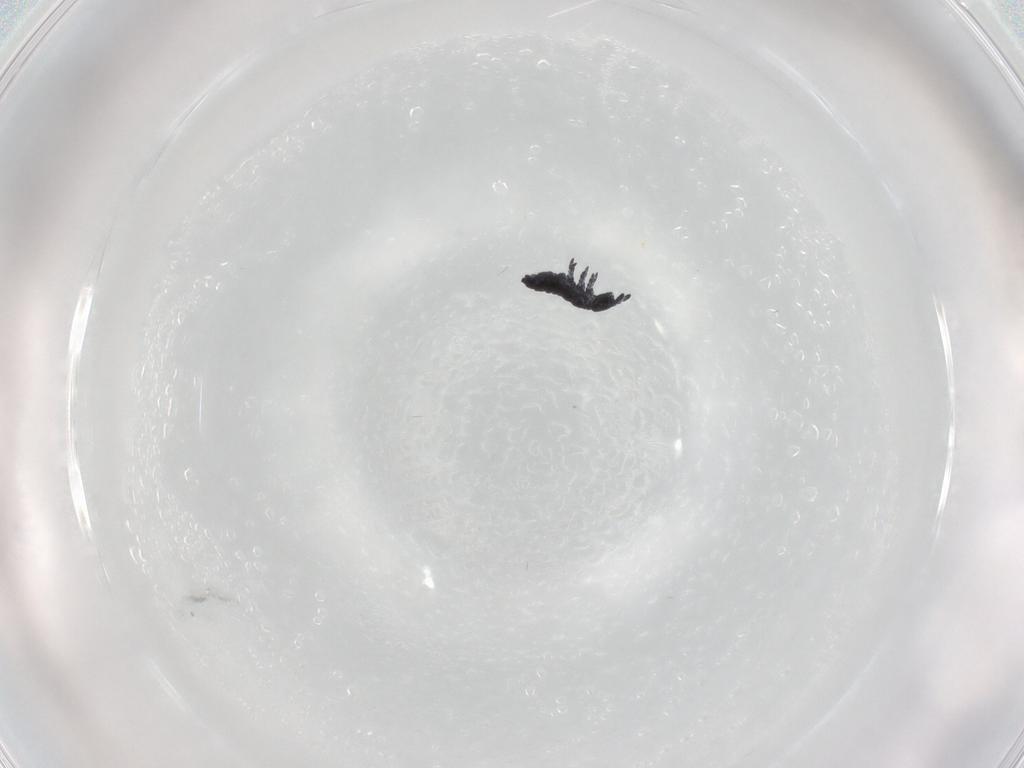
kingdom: Animalia
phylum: Arthropoda
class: Collembola
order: Poduromorpha
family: Hypogastruridae
